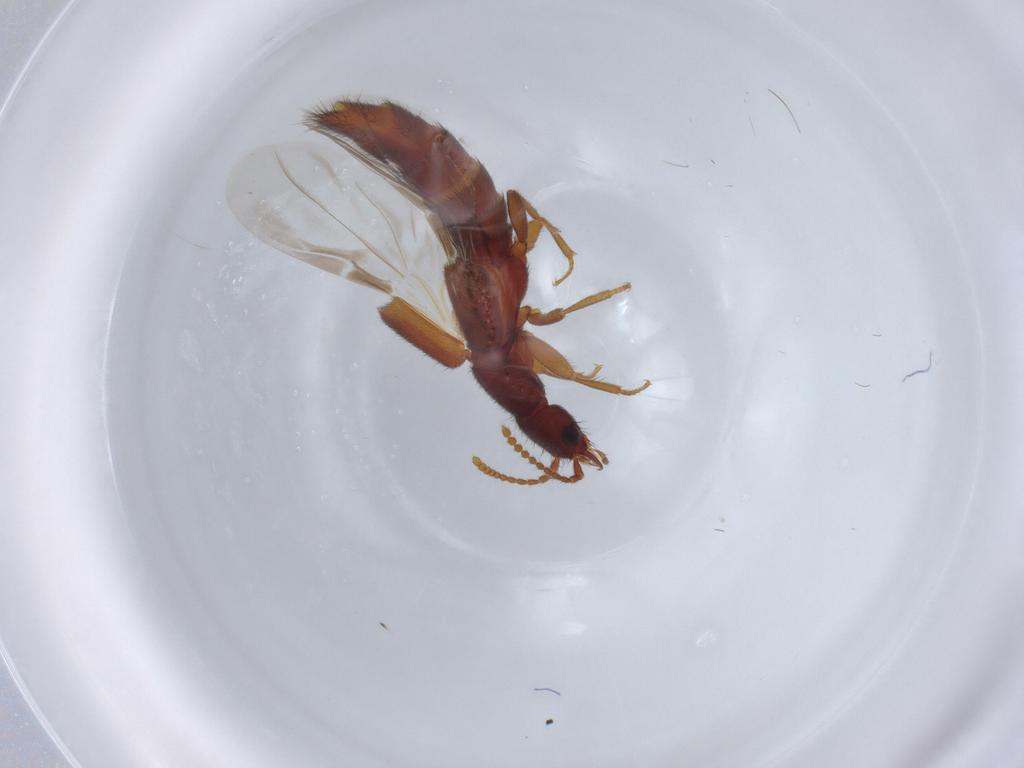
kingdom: Animalia
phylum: Arthropoda
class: Insecta
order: Coleoptera
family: Staphylinidae
